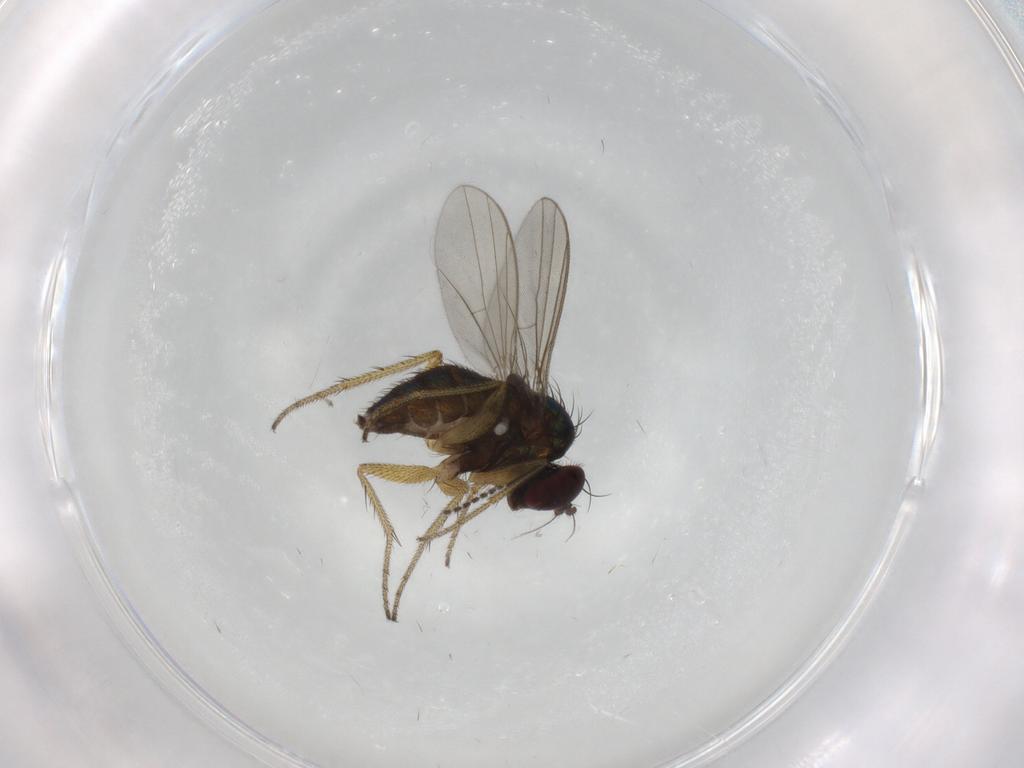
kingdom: Animalia
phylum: Arthropoda
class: Insecta
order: Diptera
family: Dolichopodidae
